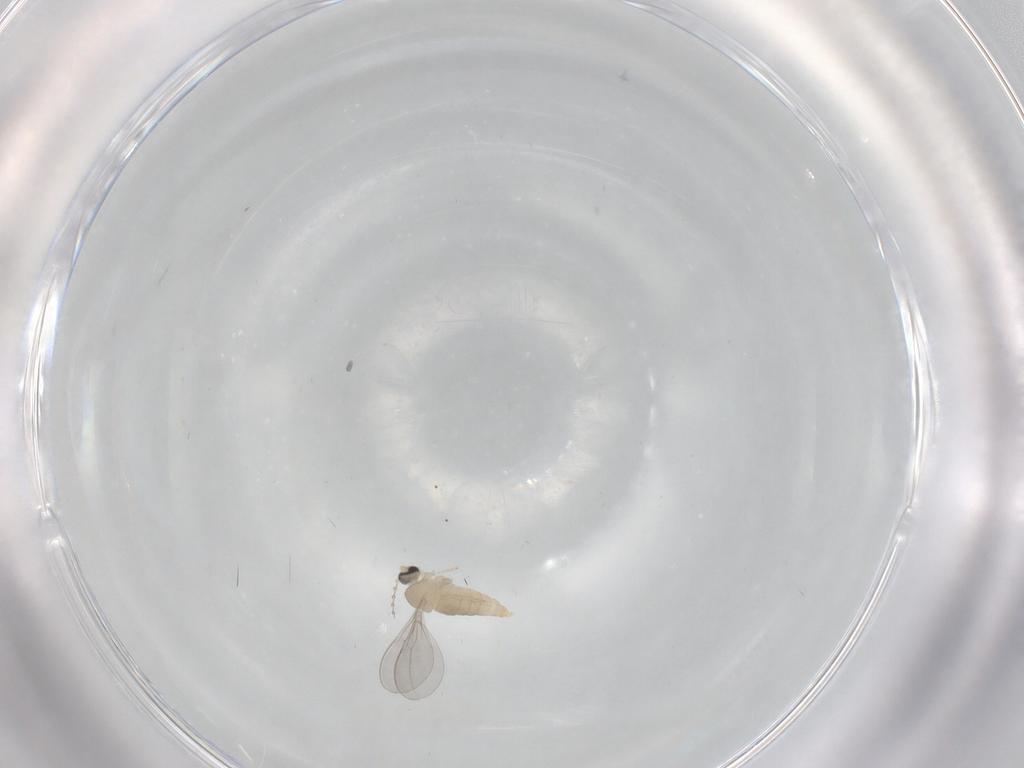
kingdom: Animalia
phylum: Arthropoda
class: Insecta
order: Diptera
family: Cecidomyiidae
